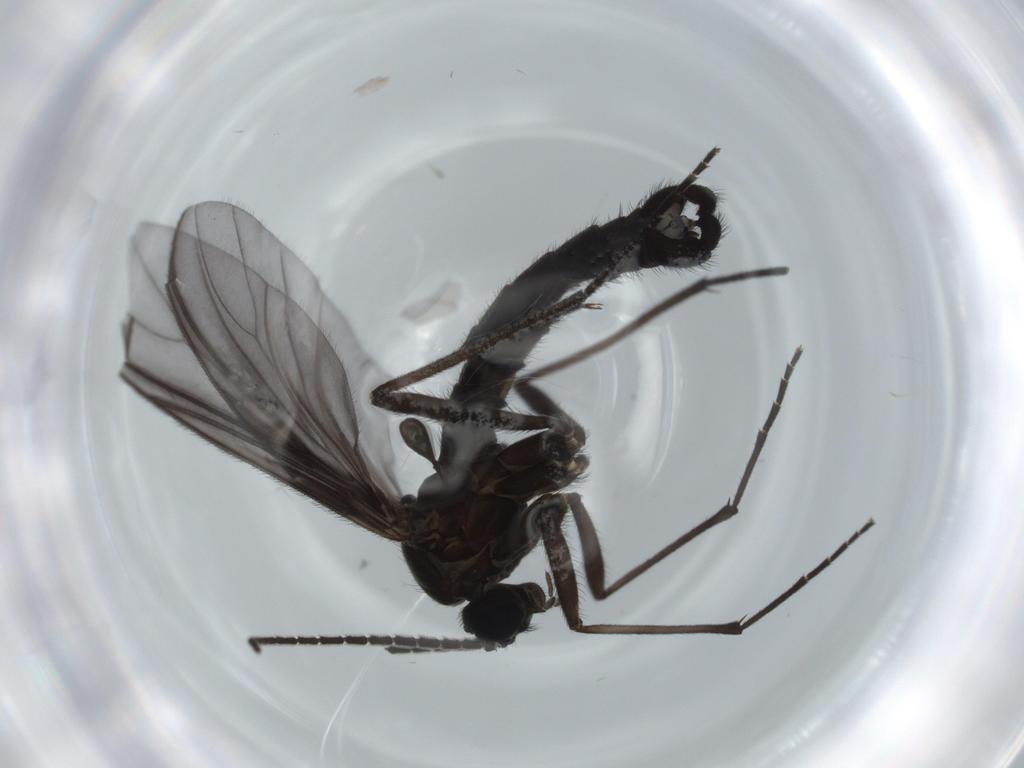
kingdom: Animalia
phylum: Arthropoda
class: Insecta
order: Diptera
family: Cecidomyiidae
